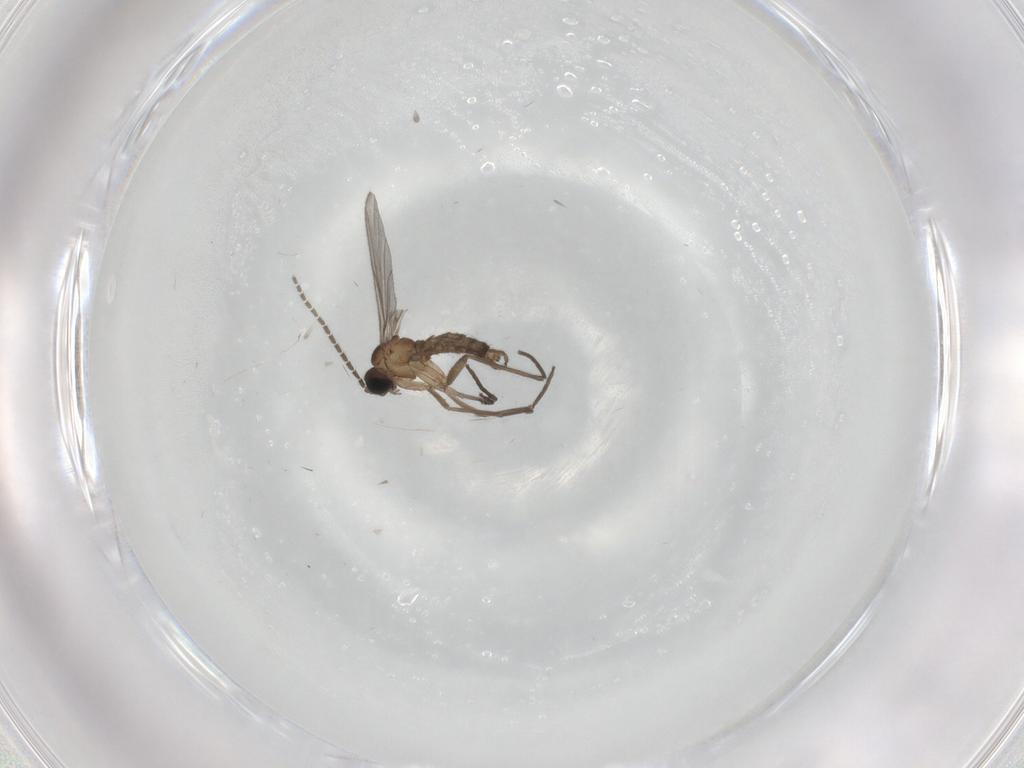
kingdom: Animalia
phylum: Arthropoda
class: Insecta
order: Diptera
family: Sciaridae
